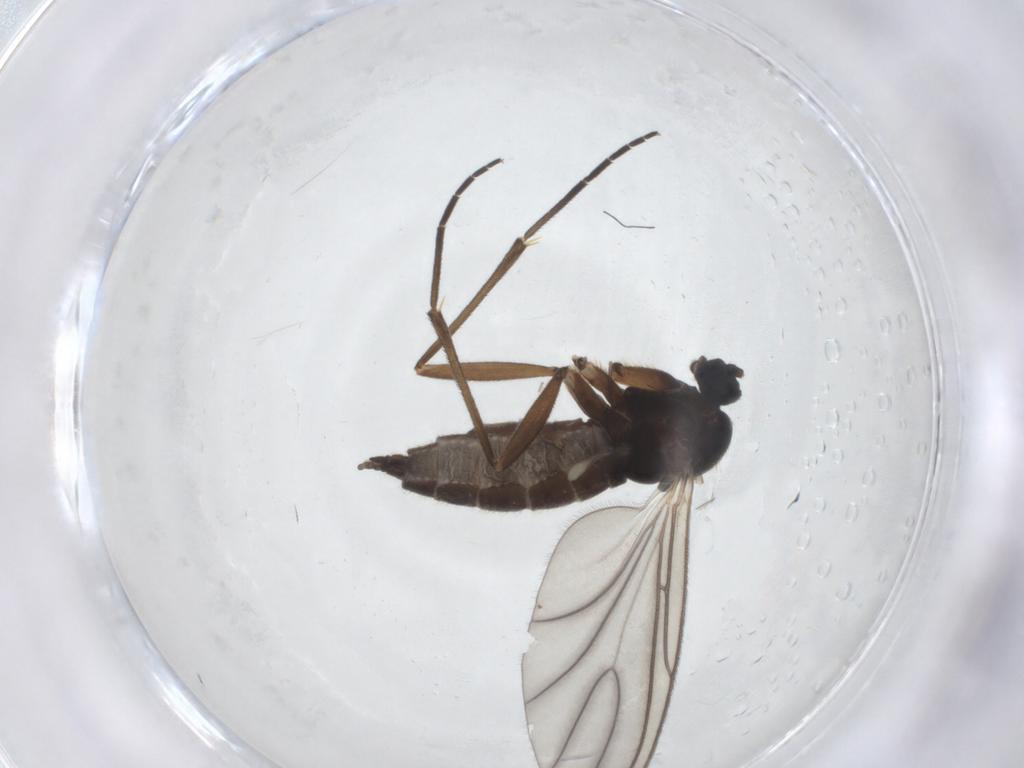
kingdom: Animalia
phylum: Arthropoda
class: Insecta
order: Diptera
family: Sciaridae
